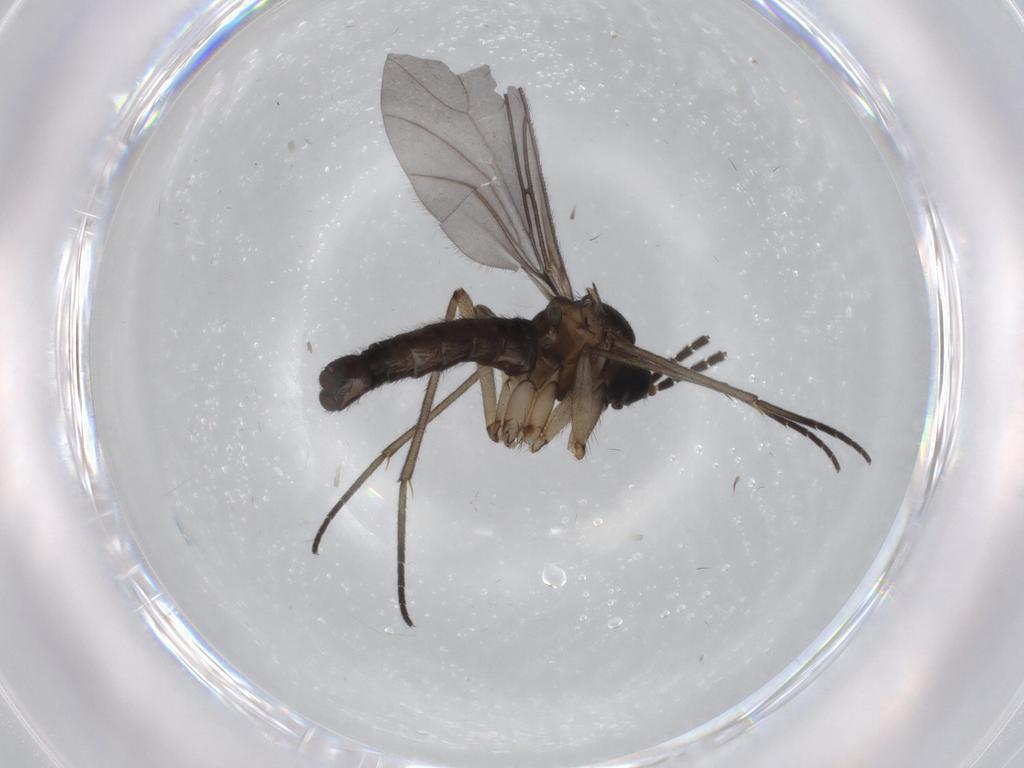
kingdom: Animalia
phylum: Arthropoda
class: Insecta
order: Diptera
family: Sciaridae
